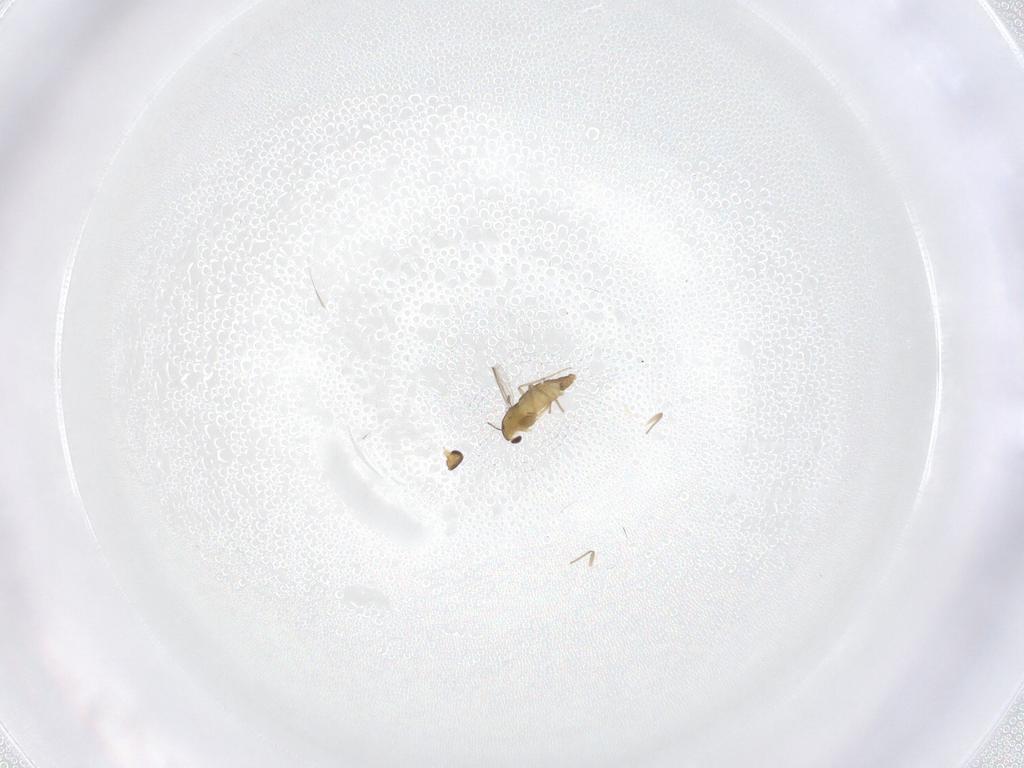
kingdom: Animalia
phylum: Arthropoda
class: Insecta
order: Diptera
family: Chironomidae
